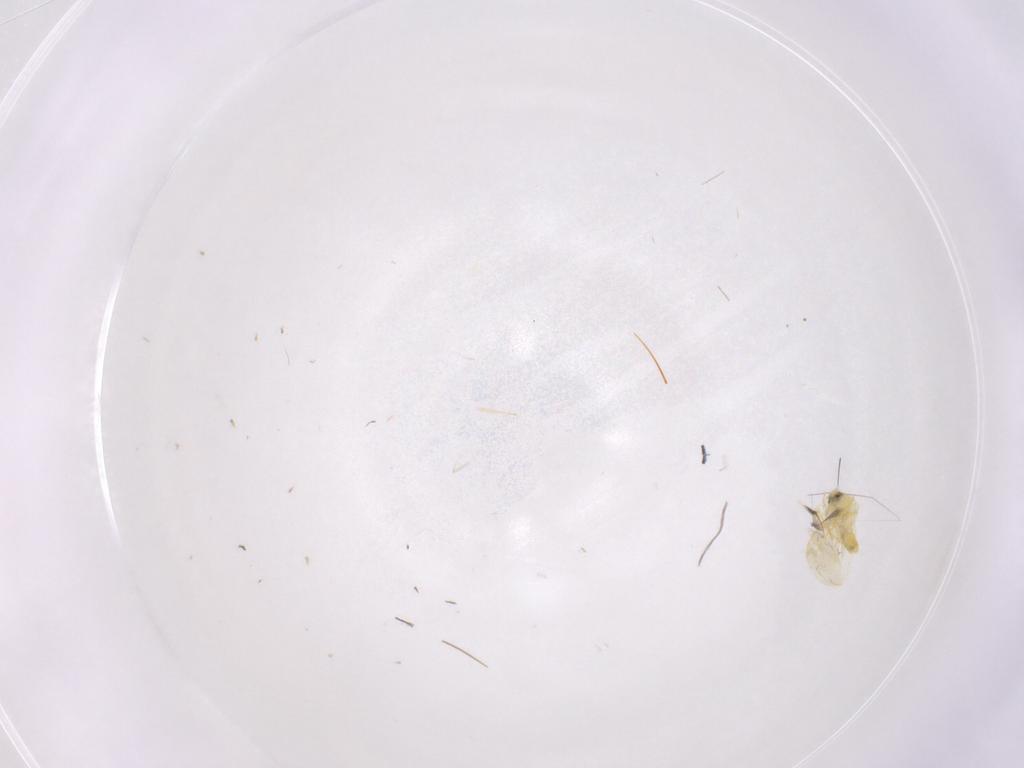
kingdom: Animalia
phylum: Arthropoda
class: Insecta
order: Hemiptera
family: Cicadellidae
